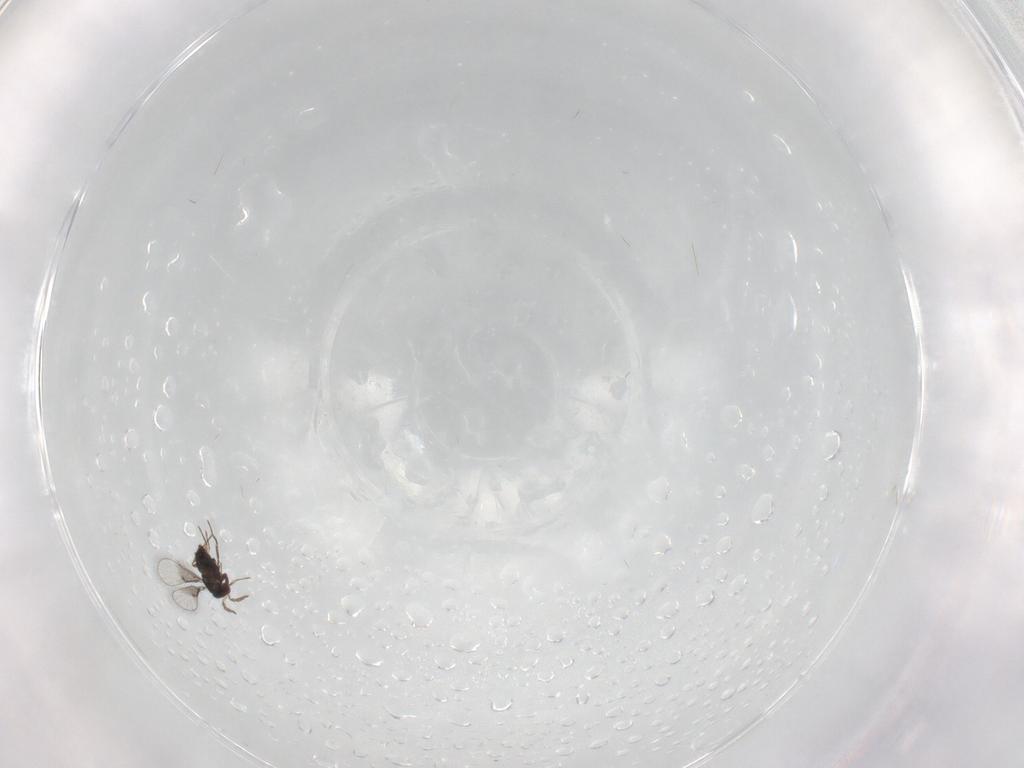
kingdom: Animalia
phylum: Arthropoda
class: Insecta
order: Hymenoptera
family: Trichogrammatidae
